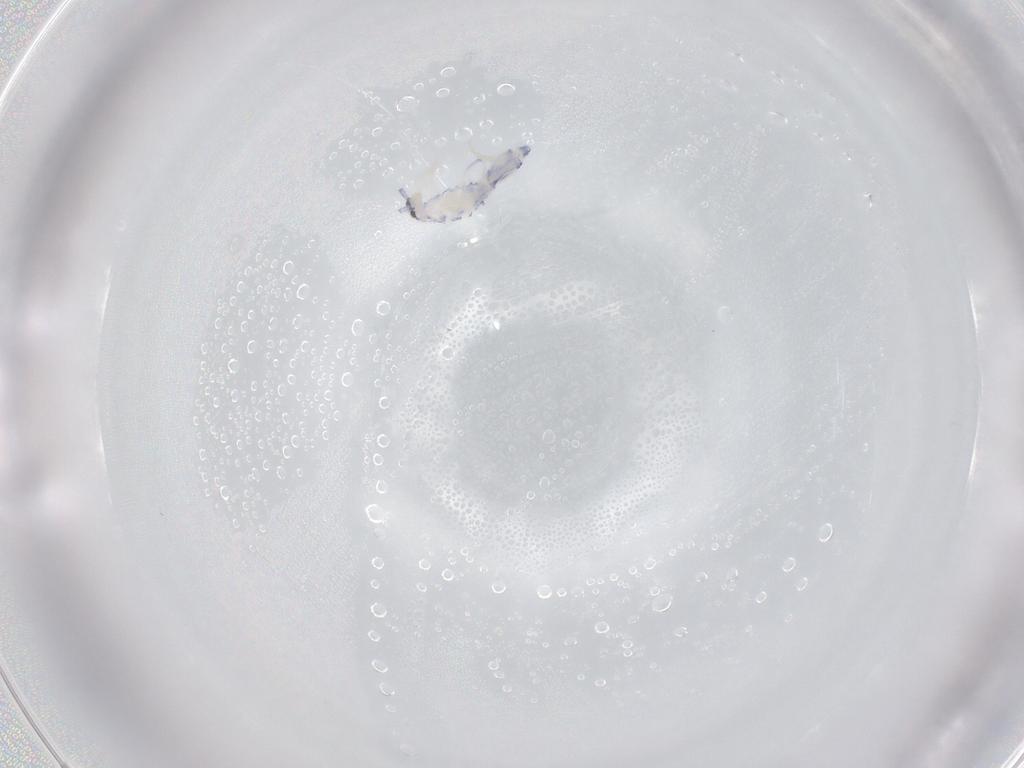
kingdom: Animalia
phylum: Arthropoda
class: Collembola
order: Entomobryomorpha
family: Entomobryidae
